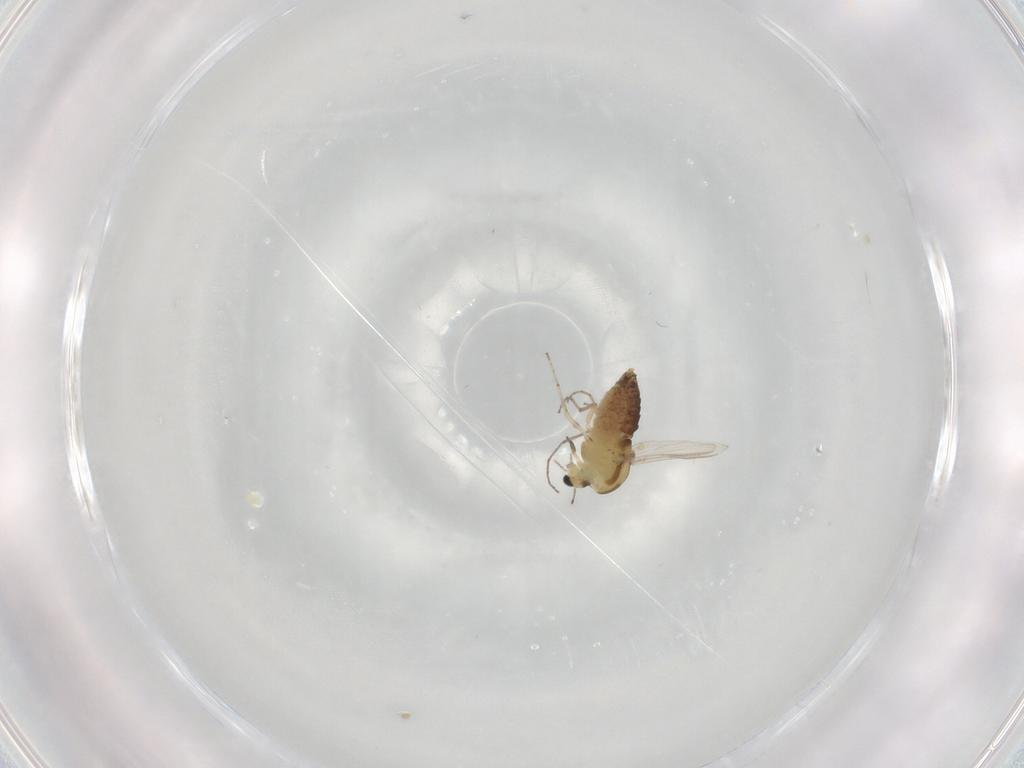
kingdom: Animalia
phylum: Arthropoda
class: Insecta
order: Diptera
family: Chironomidae
